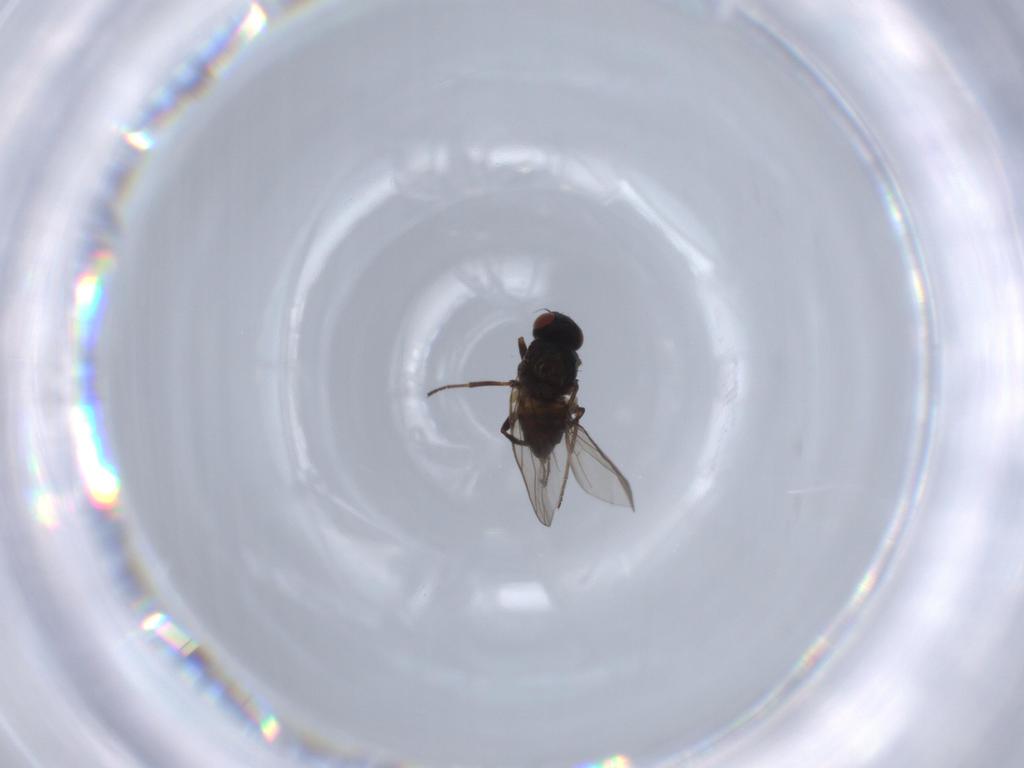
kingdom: Animalia
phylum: Arthropoda
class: Insecta
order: Diptera
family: Chloropidae
